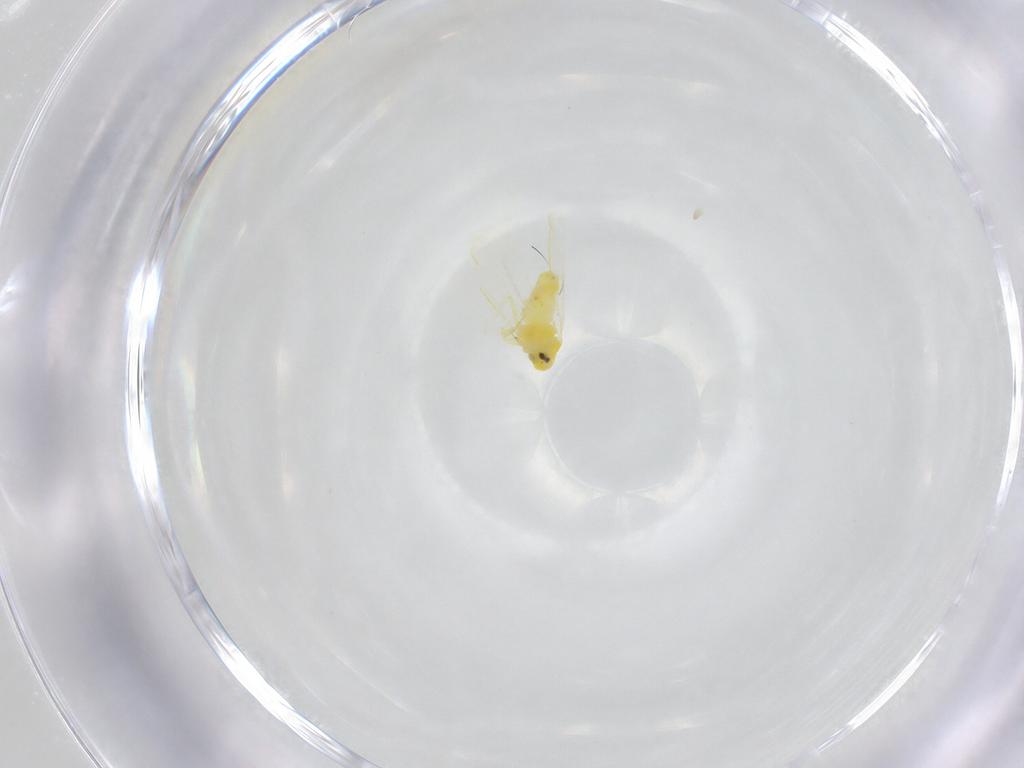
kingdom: Animalia
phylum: Arthropoda
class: Insecta
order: Hemiptera
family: Aleyrodidae
